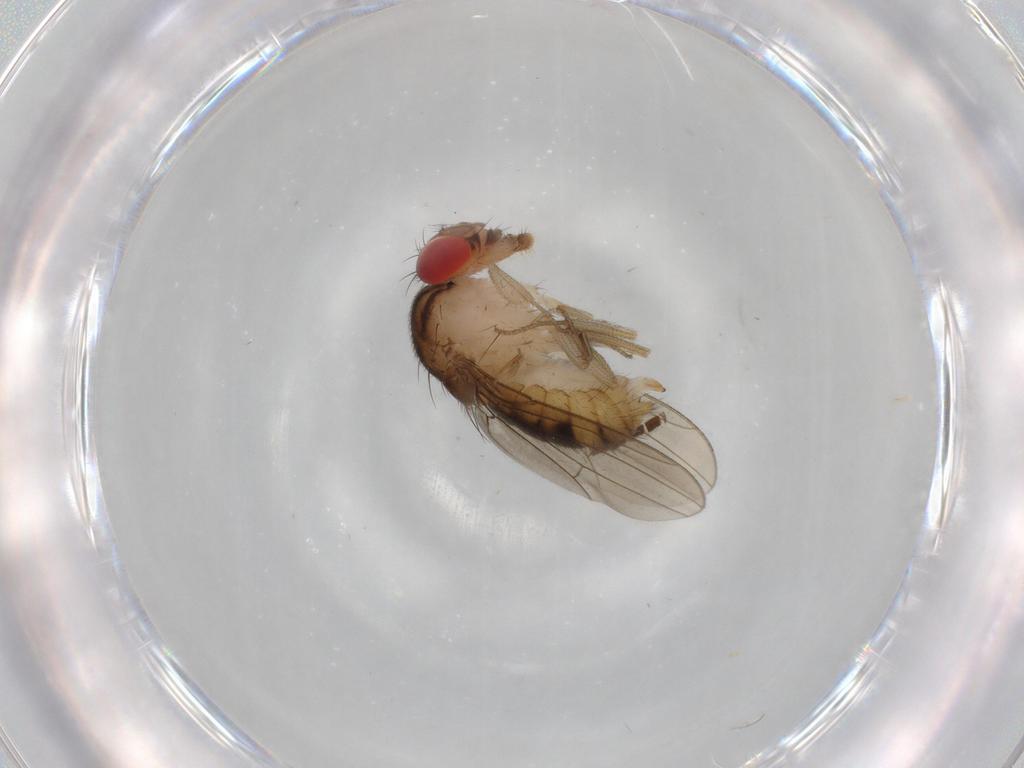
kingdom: Animalia
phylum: Arthropoda
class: Insecta
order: Diptera
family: Drosophilidae
